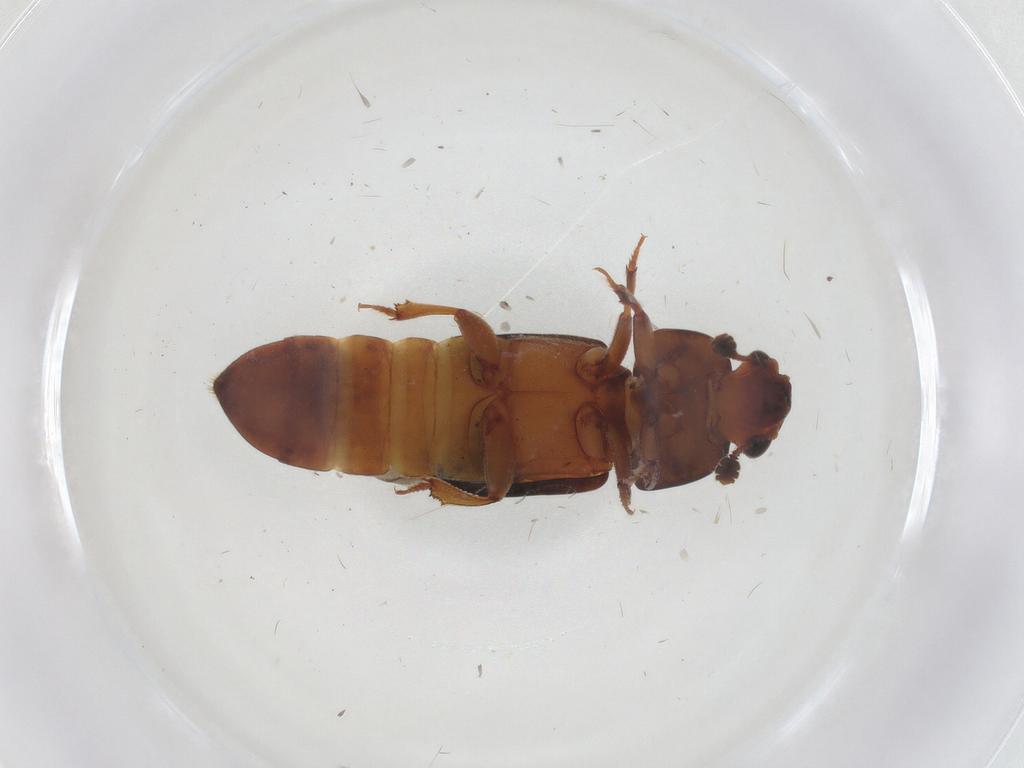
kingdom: Animalia
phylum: Arthropoda
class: Insecta
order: Coleoptera
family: Nitidulidae
